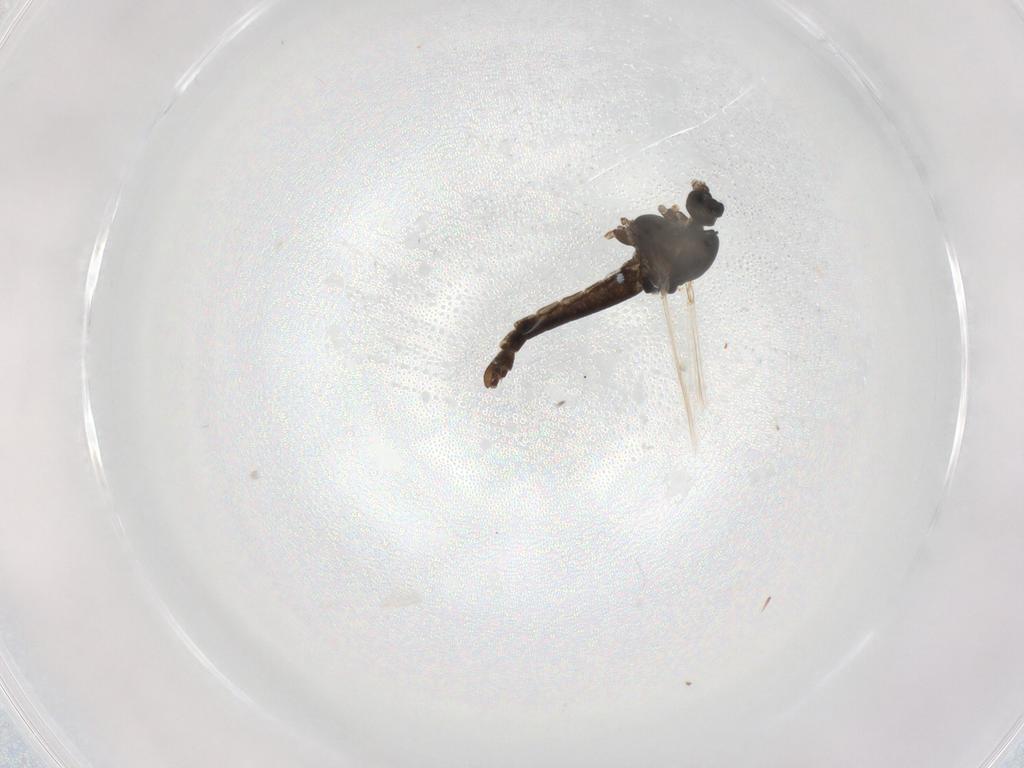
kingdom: Animalia
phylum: Arthropoda
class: Insecta
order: Diptera
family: Chironomidae
